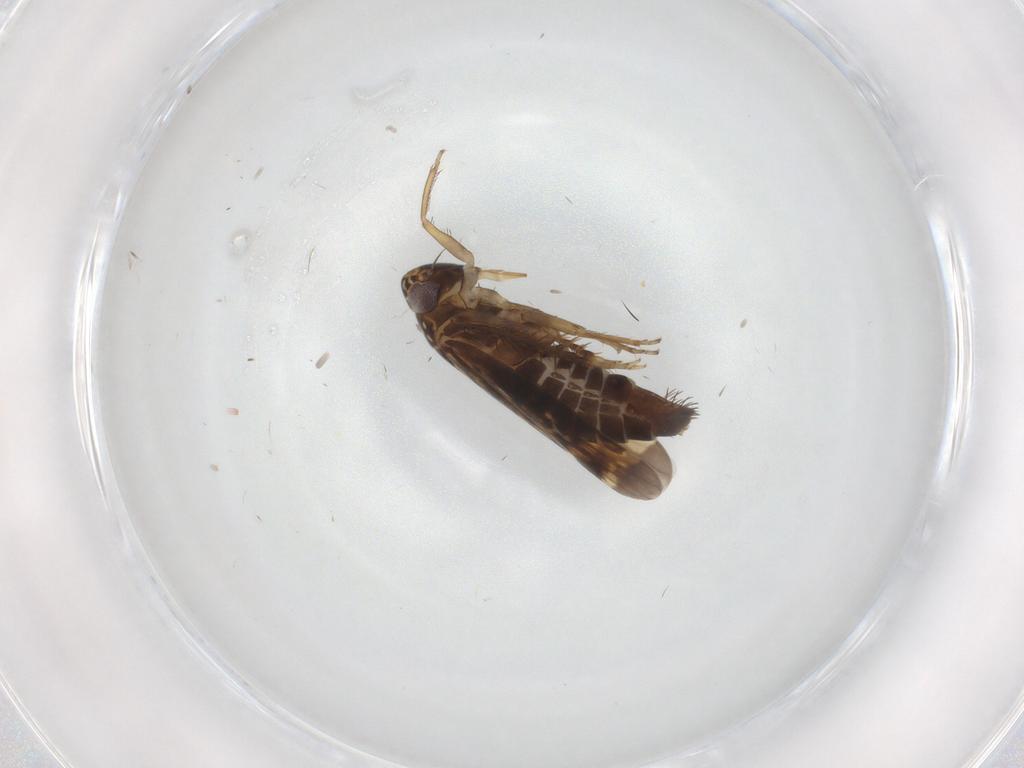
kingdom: Animalia
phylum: Arthropoda
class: Insecta
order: Hemiptera
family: Cicadellidae
